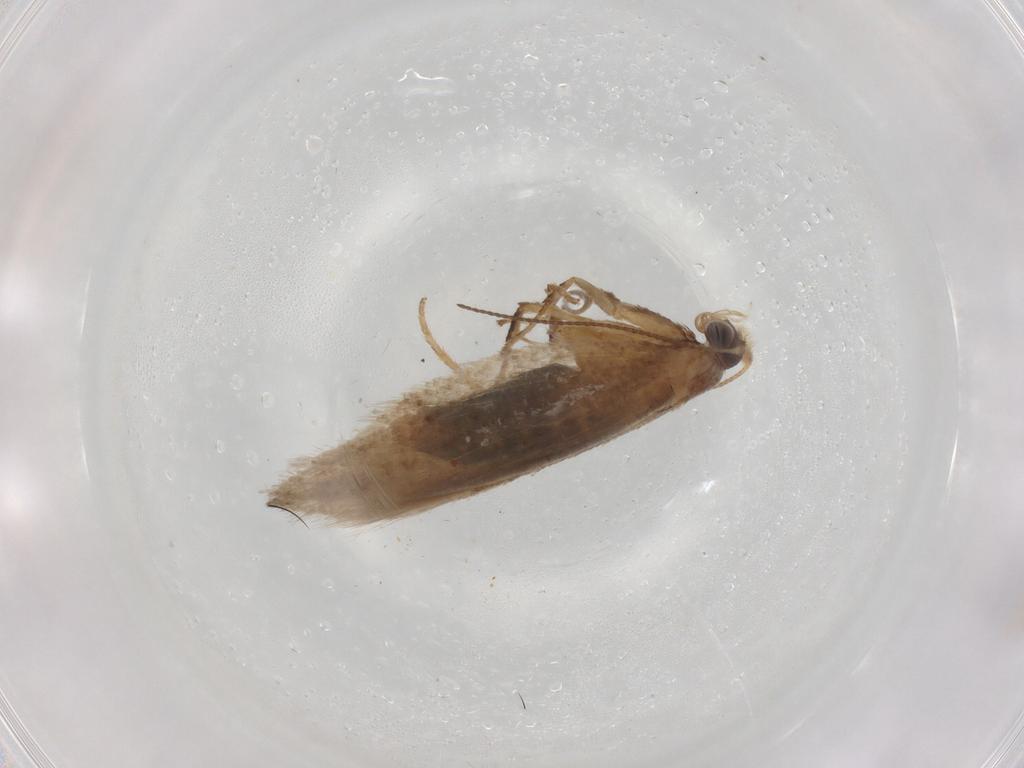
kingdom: Animalia
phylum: Arthropoda
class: Insecta
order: Lepidoptera
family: Nepticulidae
